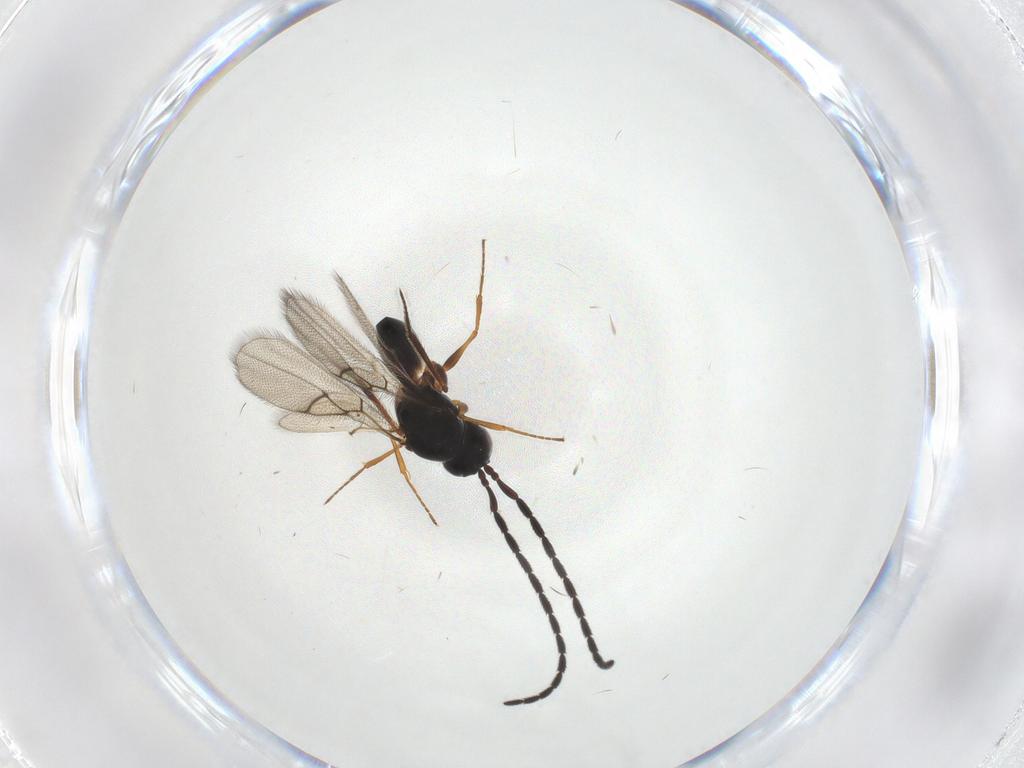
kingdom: Animalia
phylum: Arthropoda
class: Insecta
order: Hymenoptera
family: Figitidae
